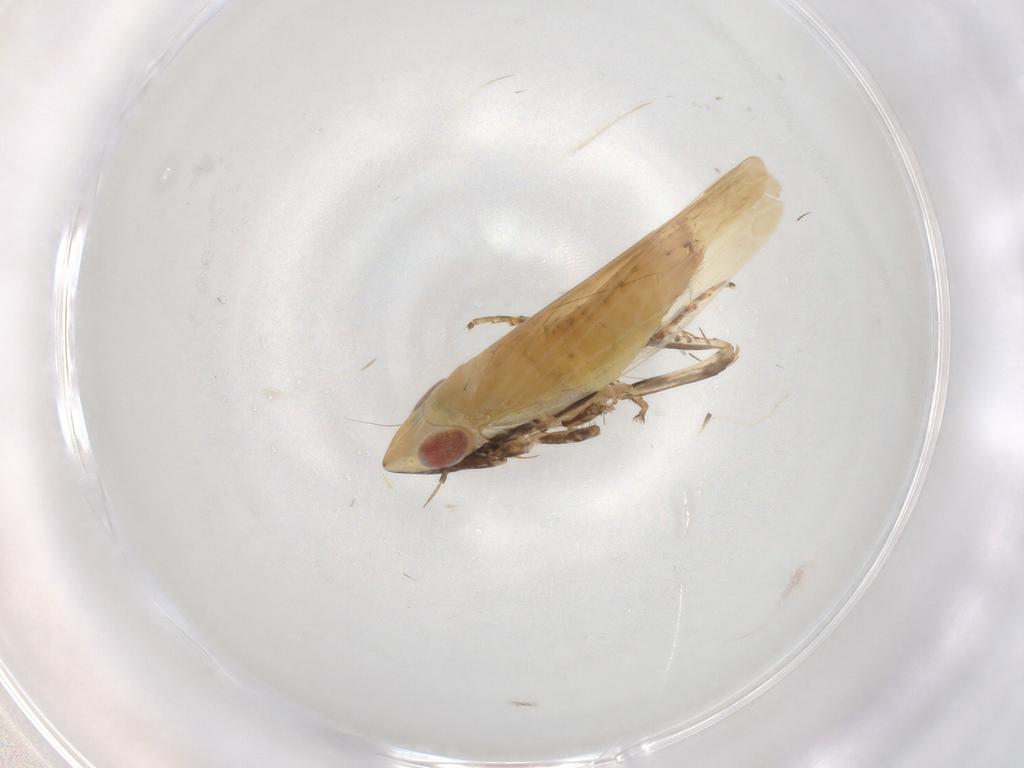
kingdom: Animalia
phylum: Arthropoda
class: Insecta
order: Hemiptera
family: Cicadellidae
